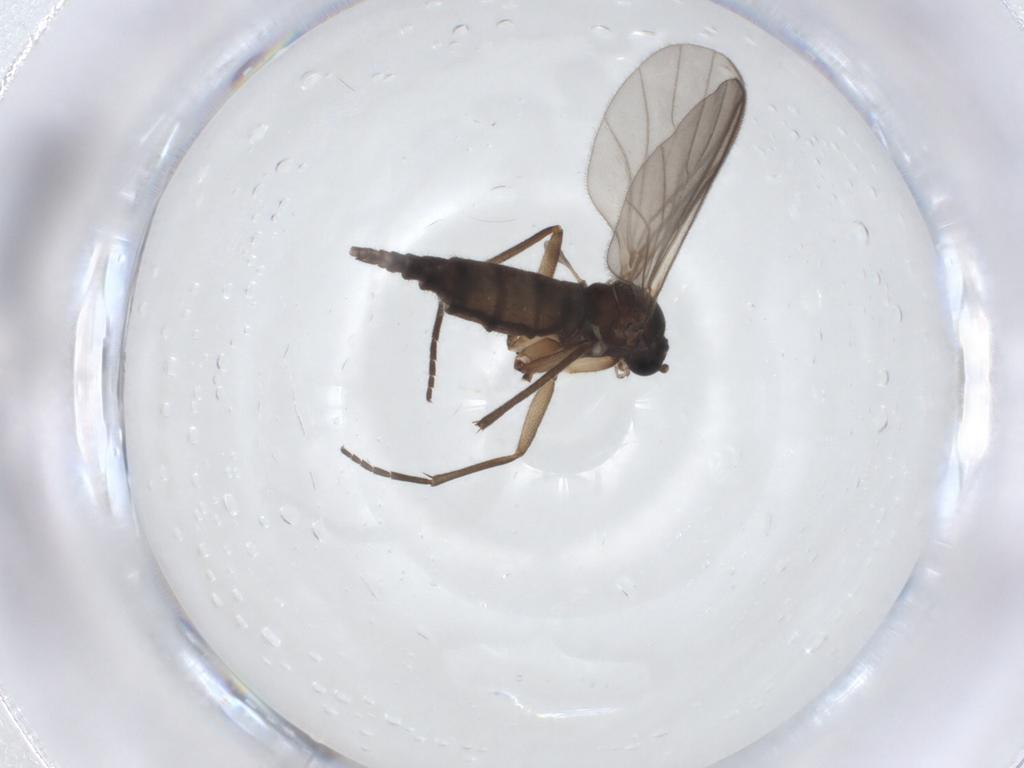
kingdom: Animalia
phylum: Arthropoda
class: Insecta
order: Diptera
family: Sciaridae
